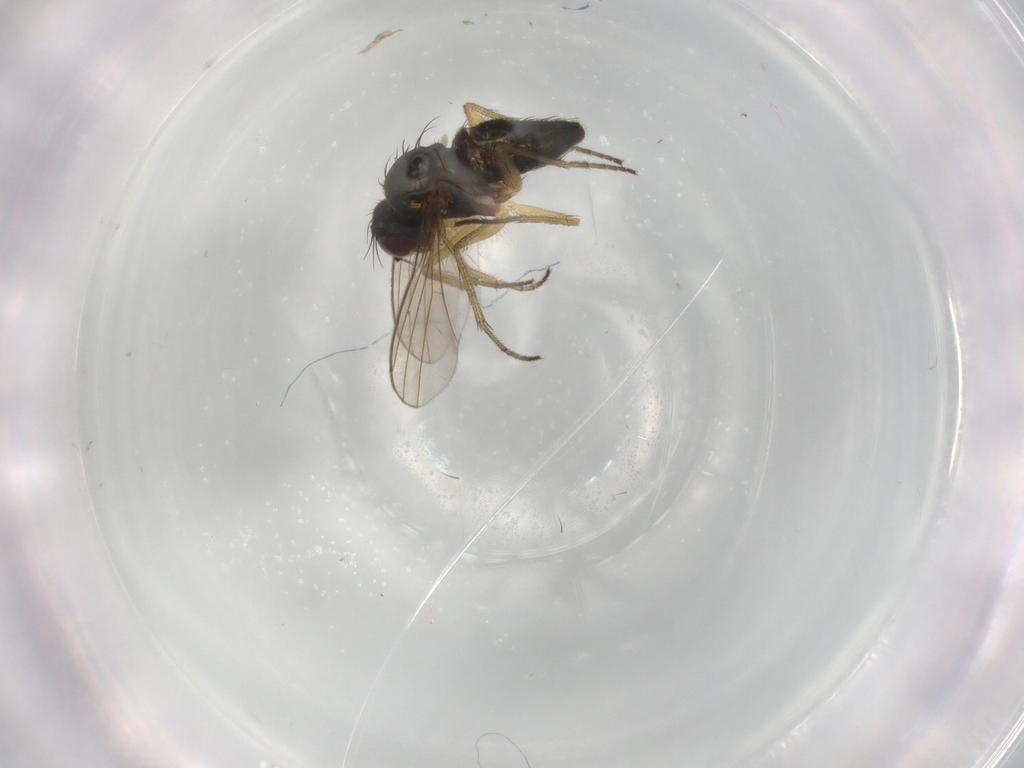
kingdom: Animalia
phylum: Arthropoda
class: Insecta
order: Diptera
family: Dolichopodidae
